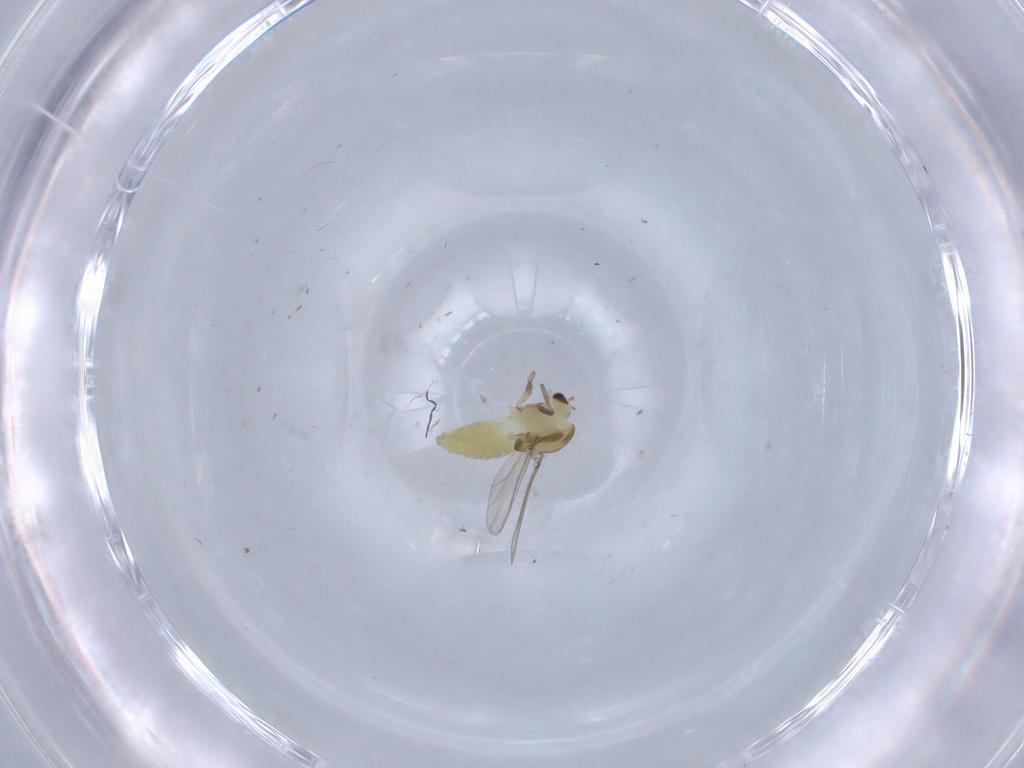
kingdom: Animalia
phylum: Arthropoda
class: Insecta
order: Diptera
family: Chironomidae
